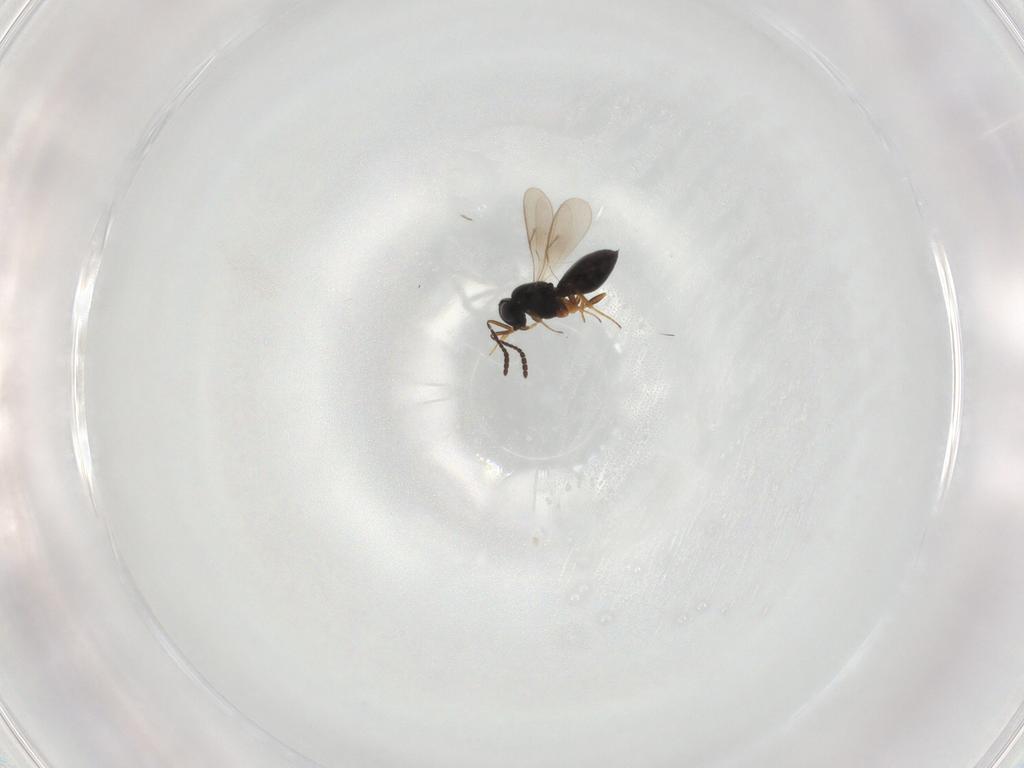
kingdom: Animalia
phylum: Arthropoda
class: Insecta
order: Hymenoptera
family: Scelionidae
